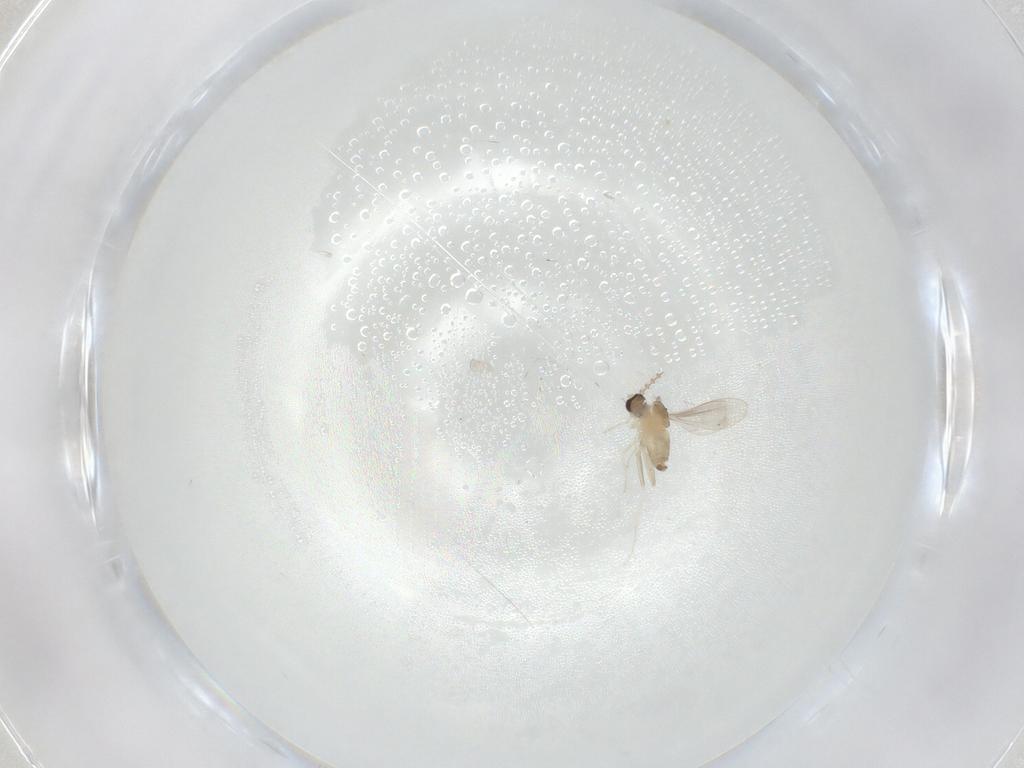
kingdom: Animalia
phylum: Arthropoda
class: Insecta
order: Diptera
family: Cecidomyiidae
